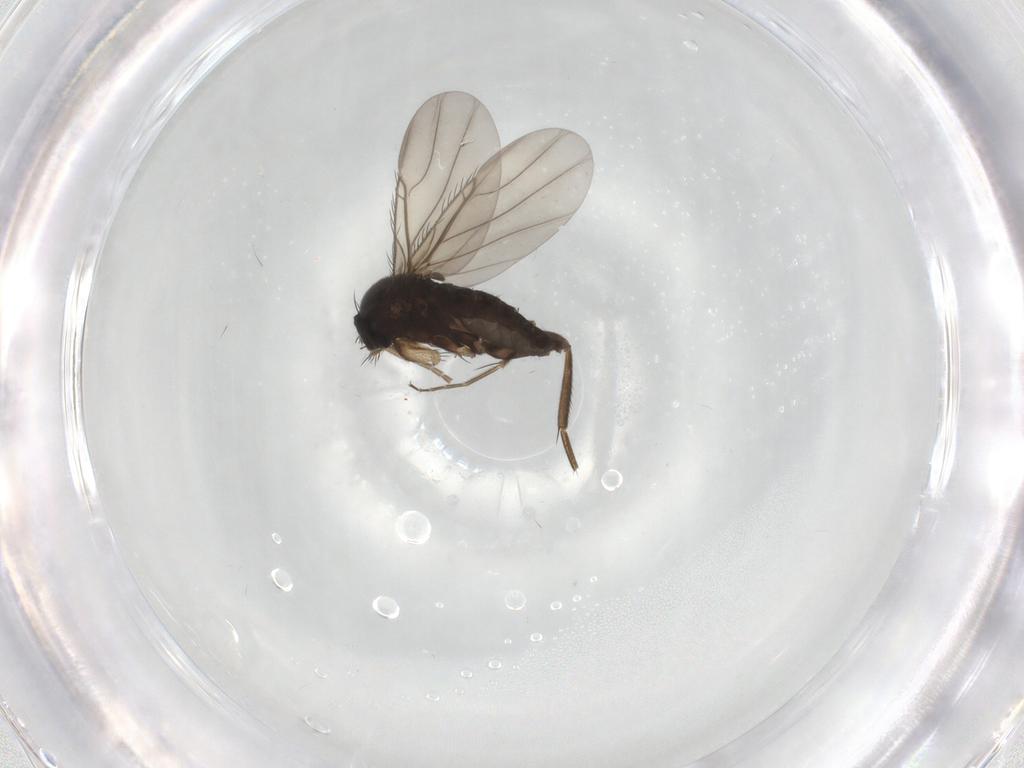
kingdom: Animalia
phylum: Arthropoda
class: Insecta
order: Diptera
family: Phoridae
